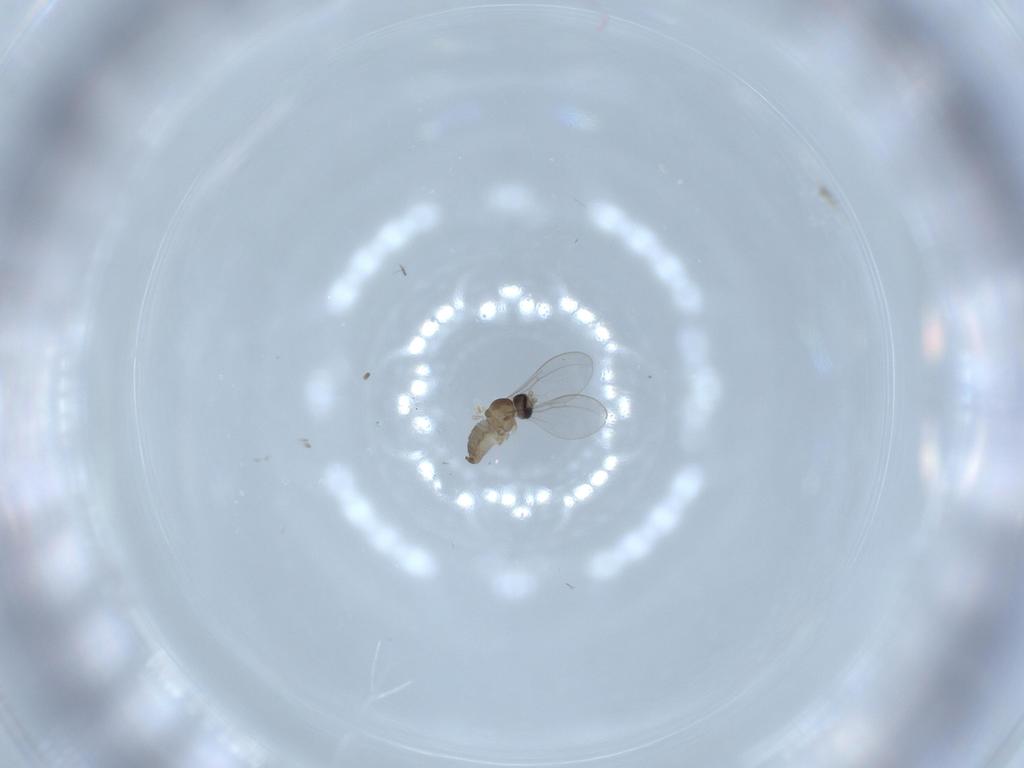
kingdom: Animalia
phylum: Arthropoda
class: Insecta
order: Diptera
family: Cecidomyiidae
